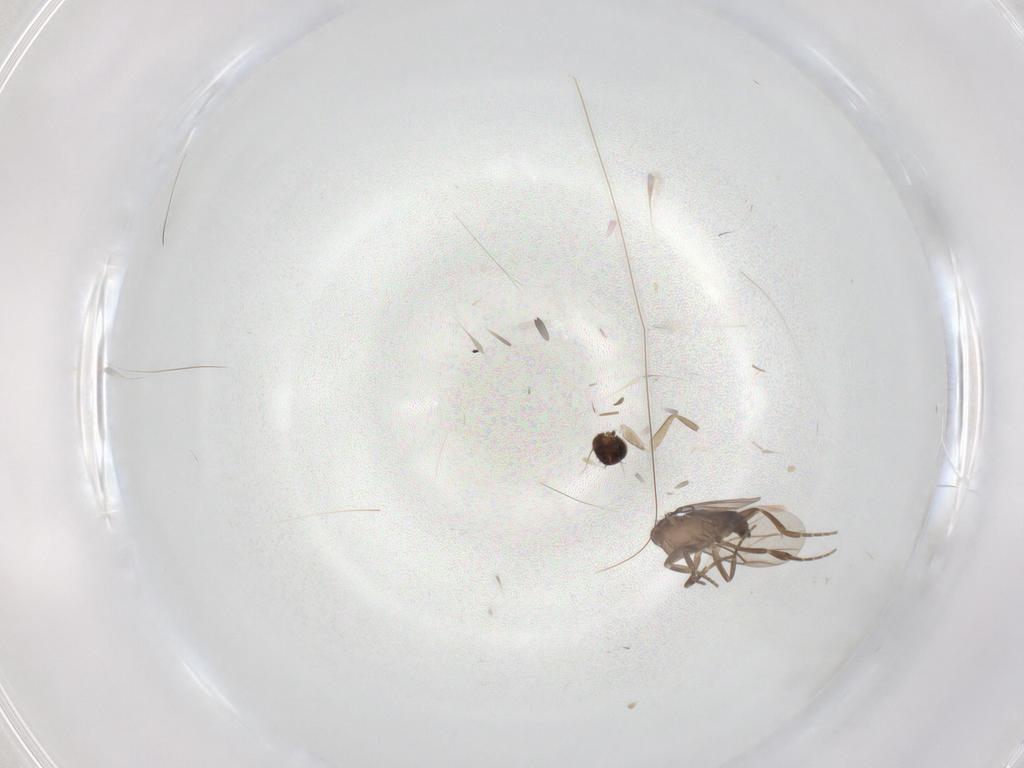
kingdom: Animalia
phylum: Arthropoda
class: Insecta
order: Diptera
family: Phoridae
